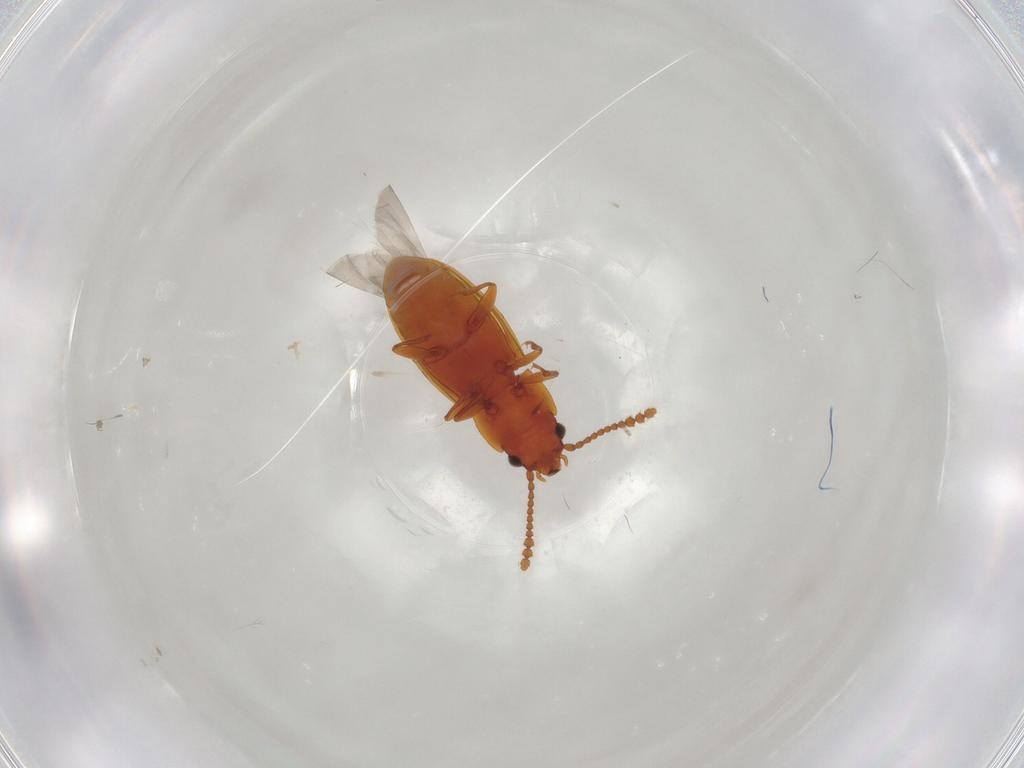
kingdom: Animalia
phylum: Arthropoda
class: Insecta
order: Coleoptera
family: Laemophloeidae
